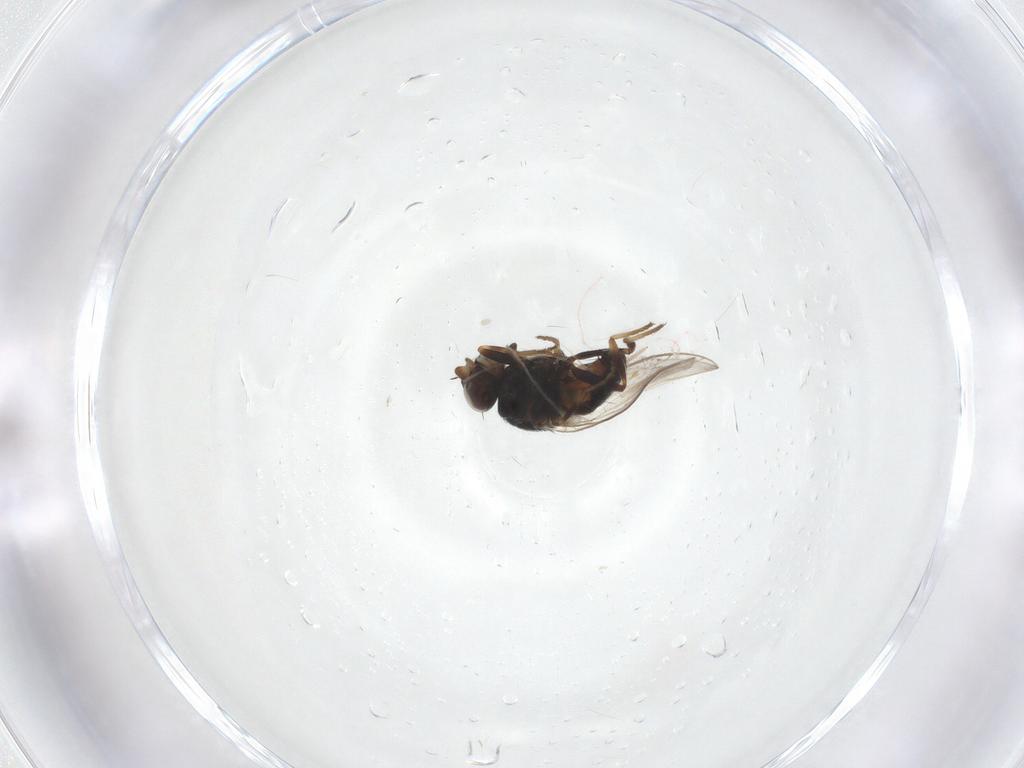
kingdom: Animalia
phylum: Arthropoda
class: Insecta
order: Diptera
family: Chloropidae
